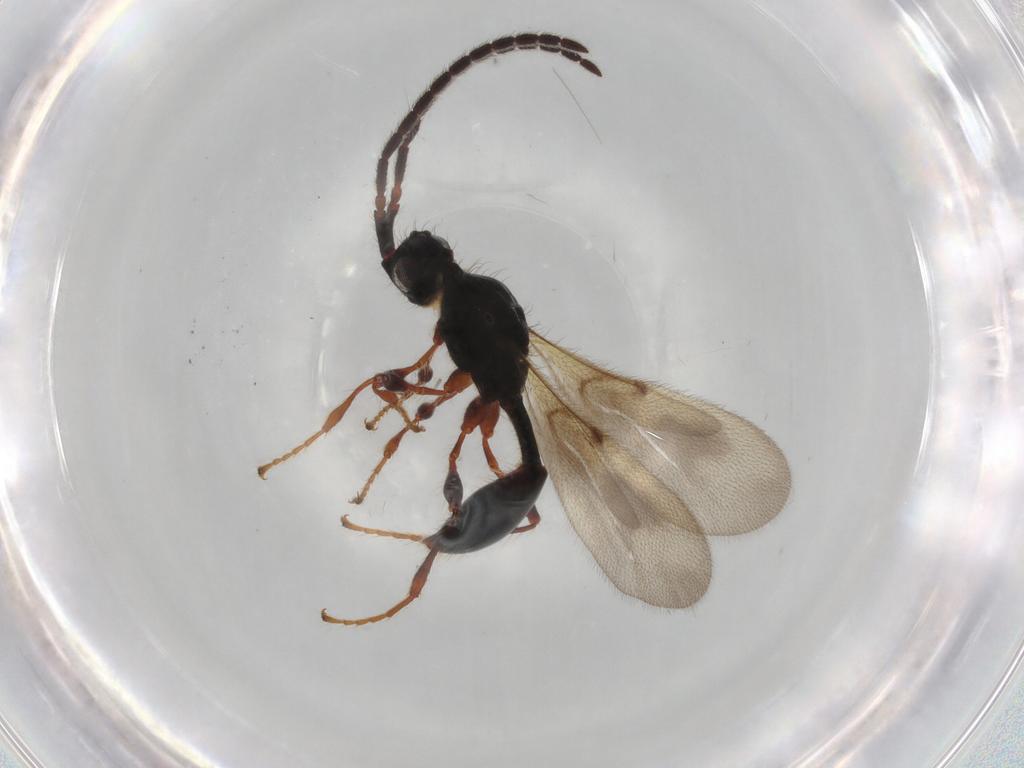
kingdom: Animalia
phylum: Arthropoda
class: Insecta
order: Hymenoptera
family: Diapriidae
